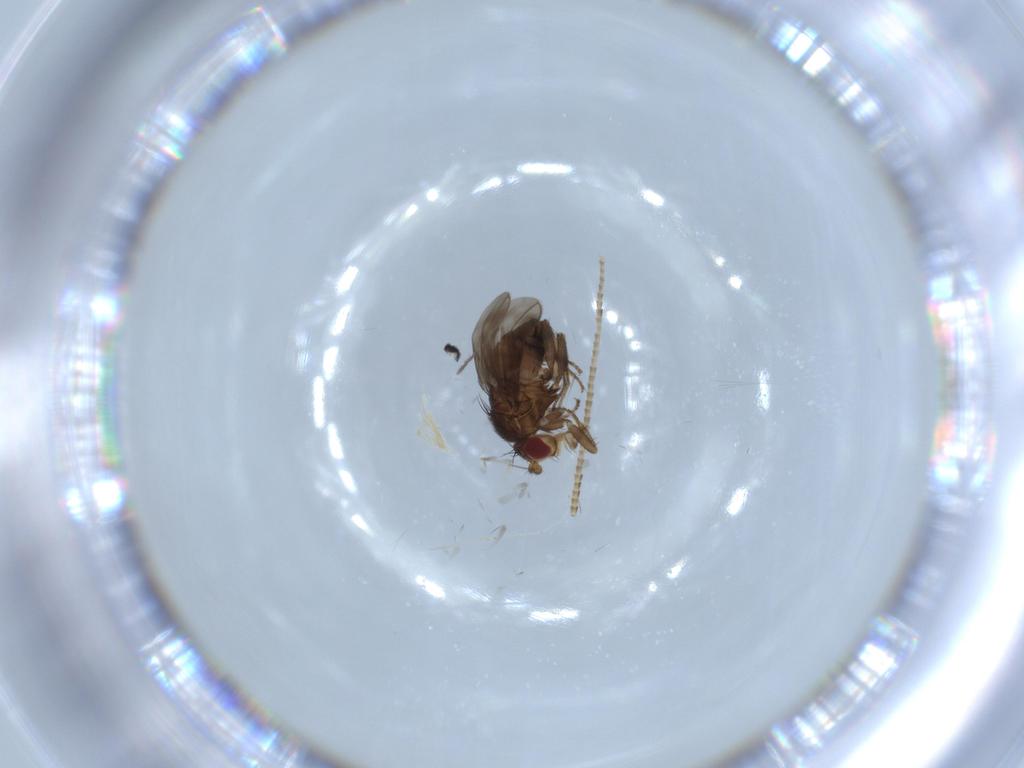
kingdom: Animalia
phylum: Arthropoda
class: Insecta
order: Diptera
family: Cecidomyiidae
